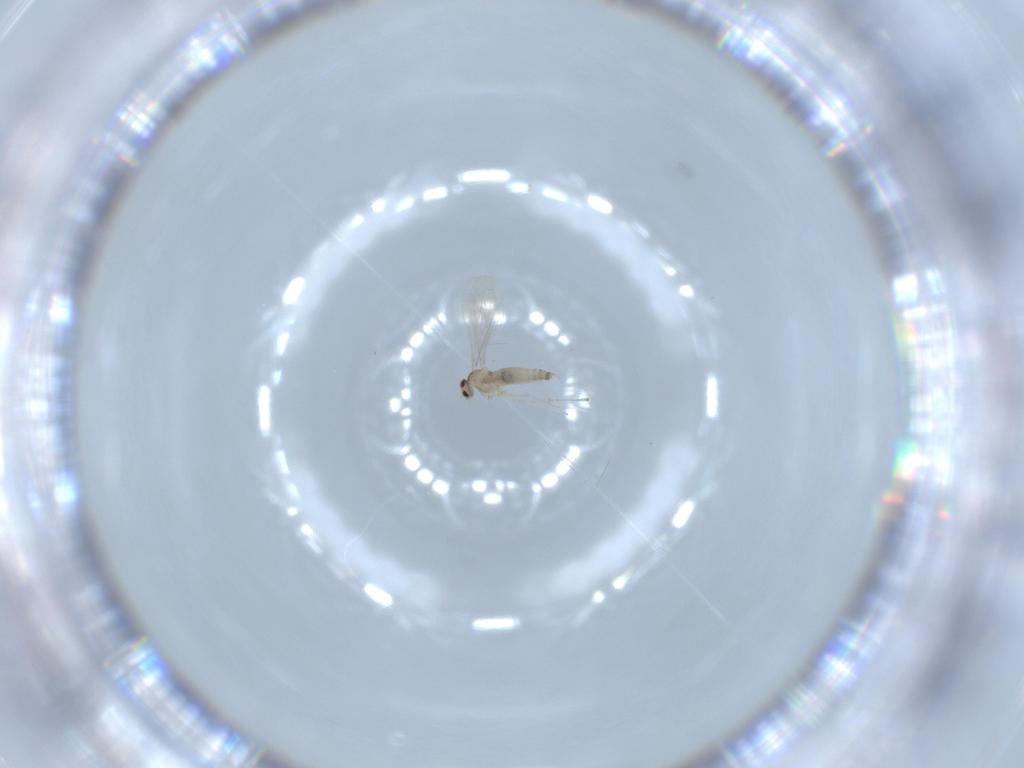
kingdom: Animalia
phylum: Arthropoda
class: Insecta
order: Diptera
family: Cecidomyiidae
